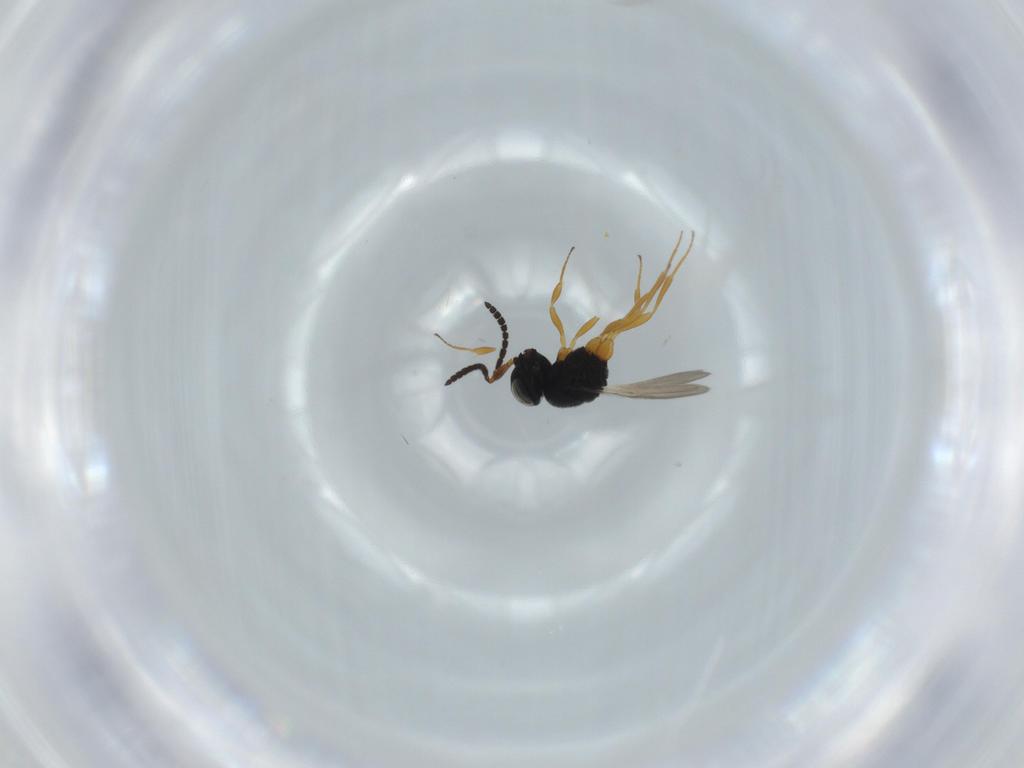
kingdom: Animalia
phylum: Arthropoda
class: Insecta
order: Hymenoptera
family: Scelionidae
